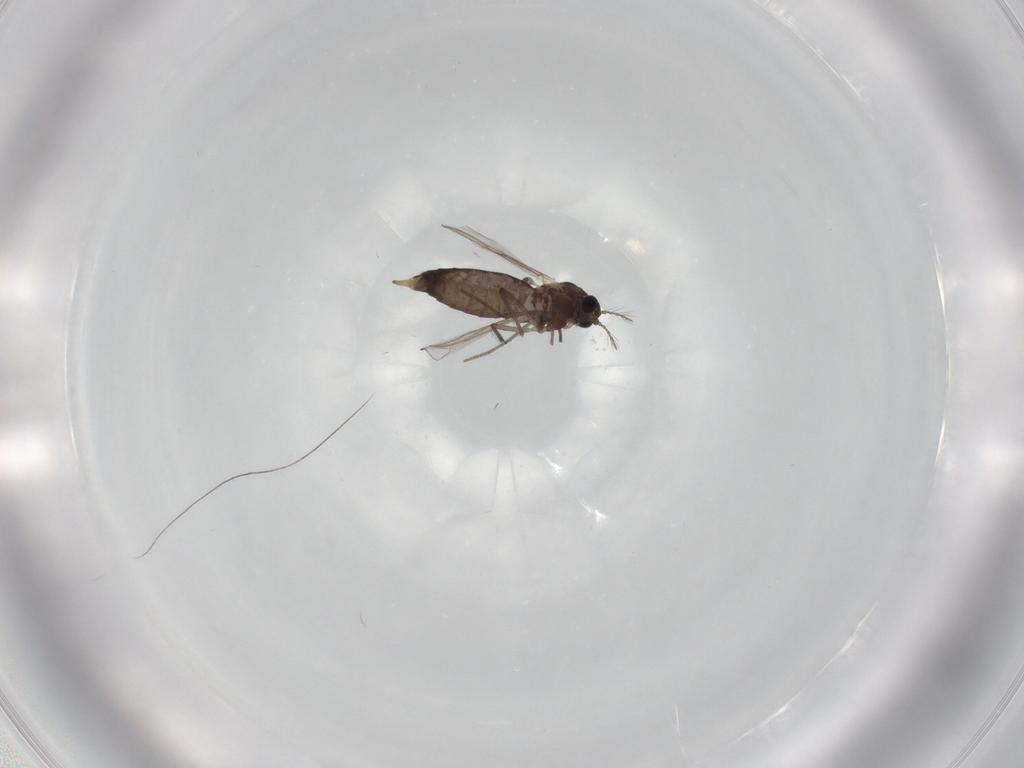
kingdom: Animalia
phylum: Arthropoda
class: Insecta
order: Diptera
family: Chironomidae
